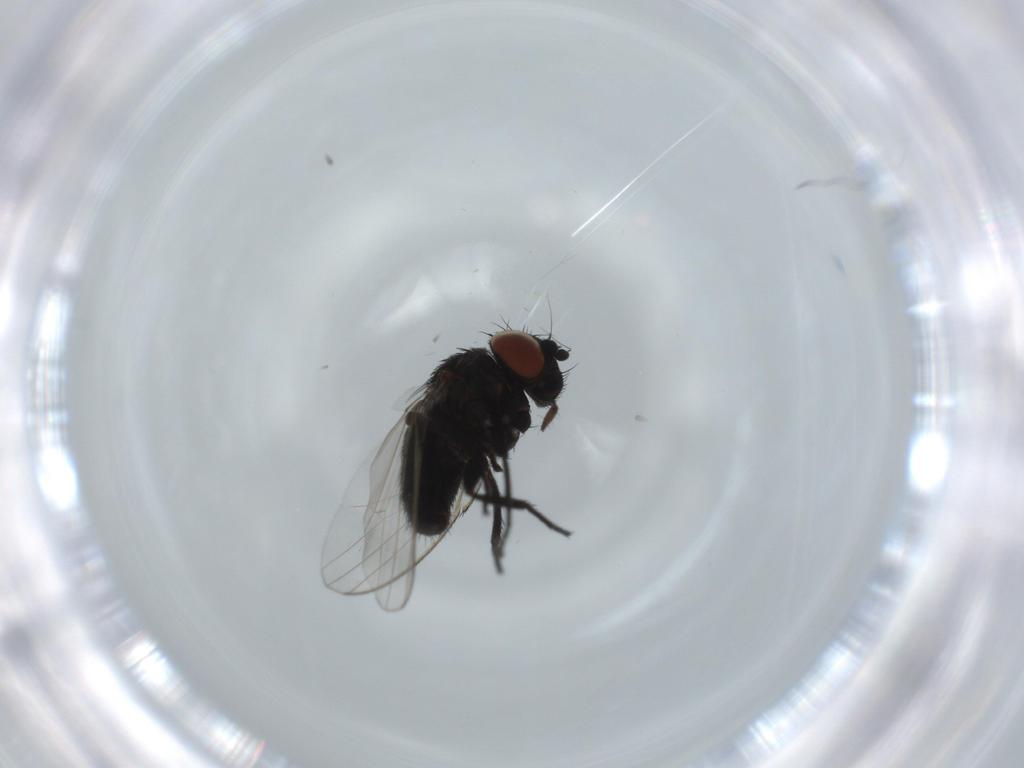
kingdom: Animalia
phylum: Arthropoda
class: Insecta
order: Diptera
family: Milichiidae
